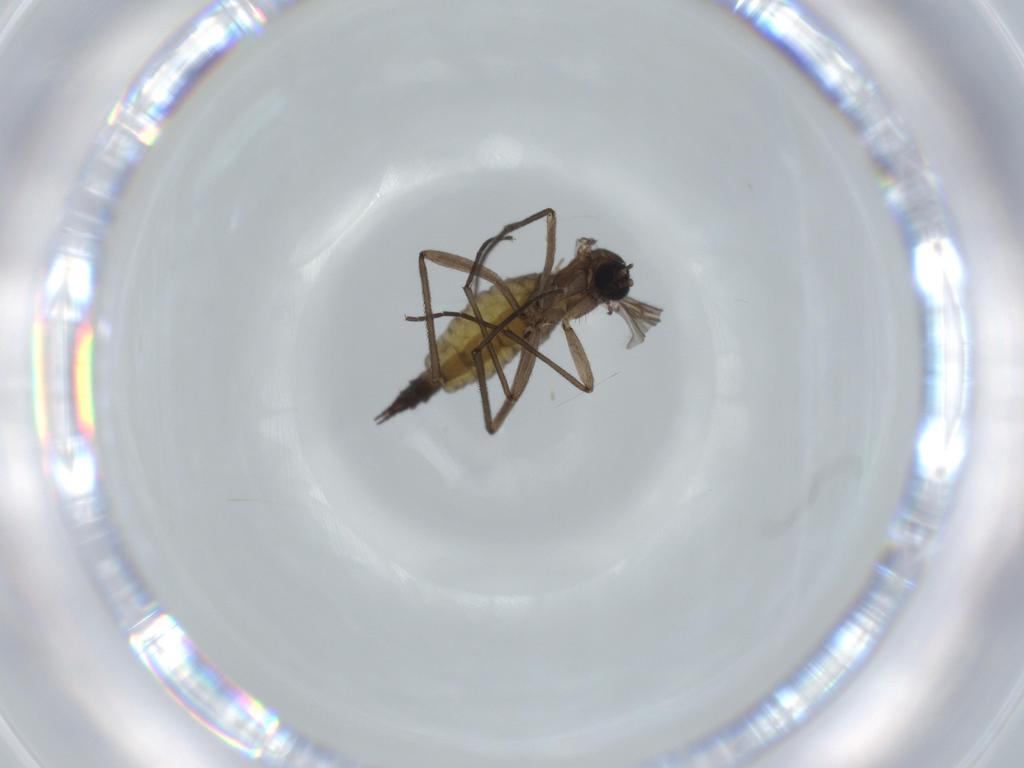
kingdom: Animalia
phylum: Arthropoda
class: Insecta
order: Diptera
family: Sciaridae
